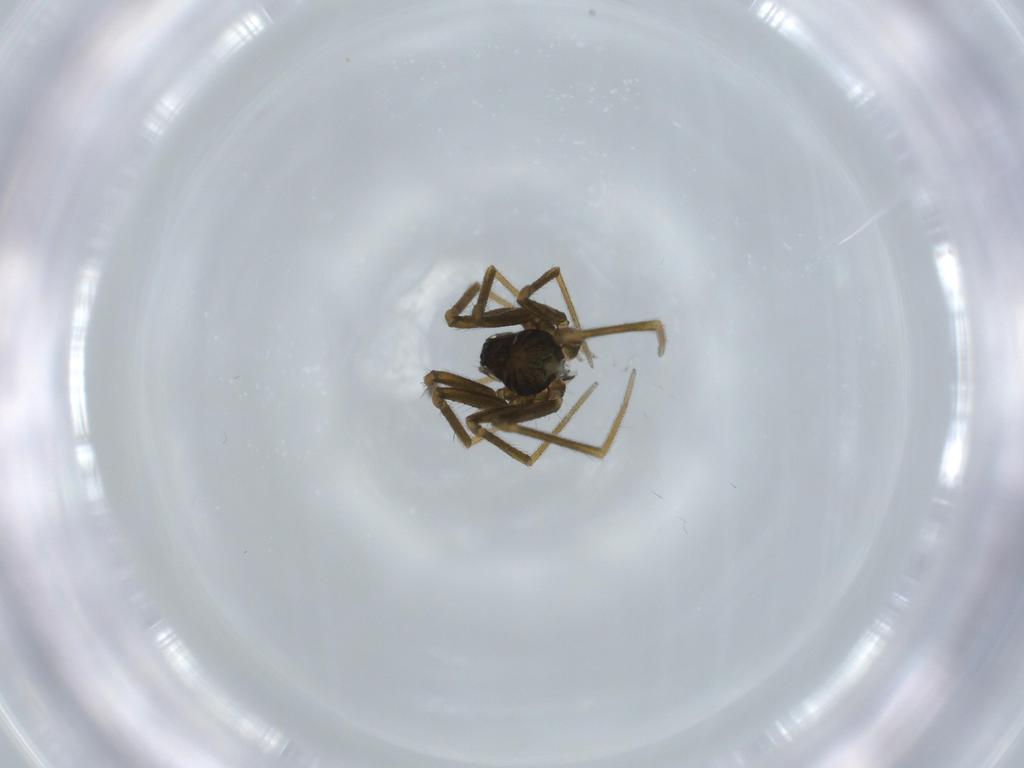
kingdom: Animalia
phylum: Arthropoda
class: Arachnida
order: Araneae
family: Linyphiidae
